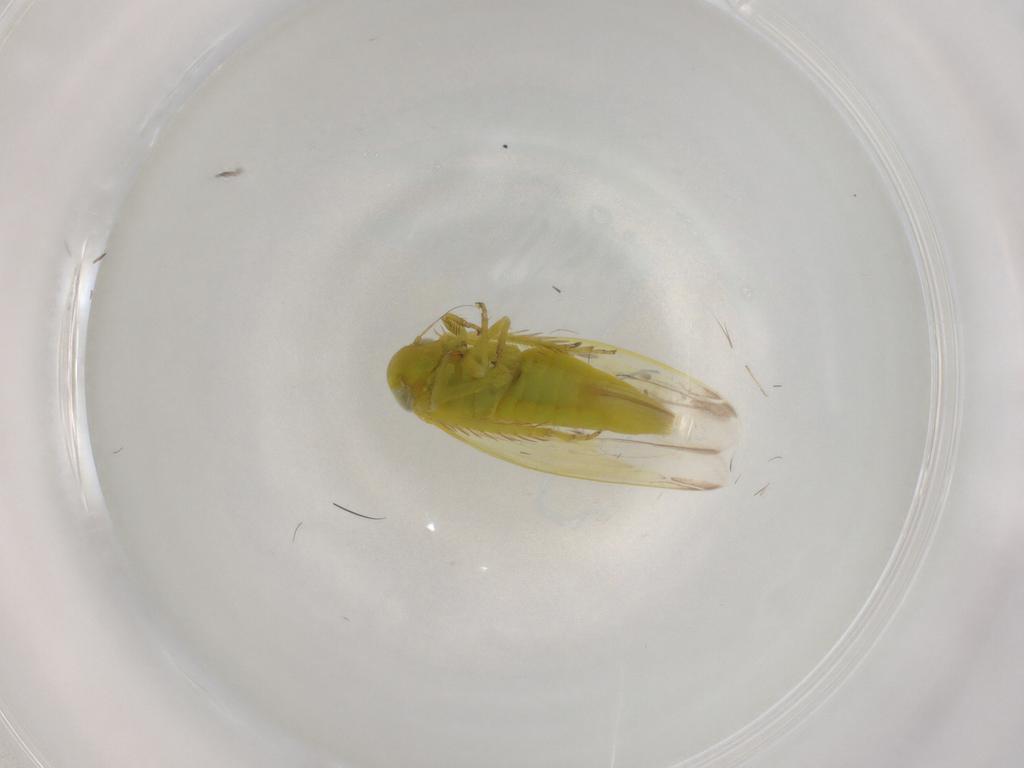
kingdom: Animalia
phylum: Arthropoda
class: Insecta
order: Hemiptera
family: Cicadellidae
